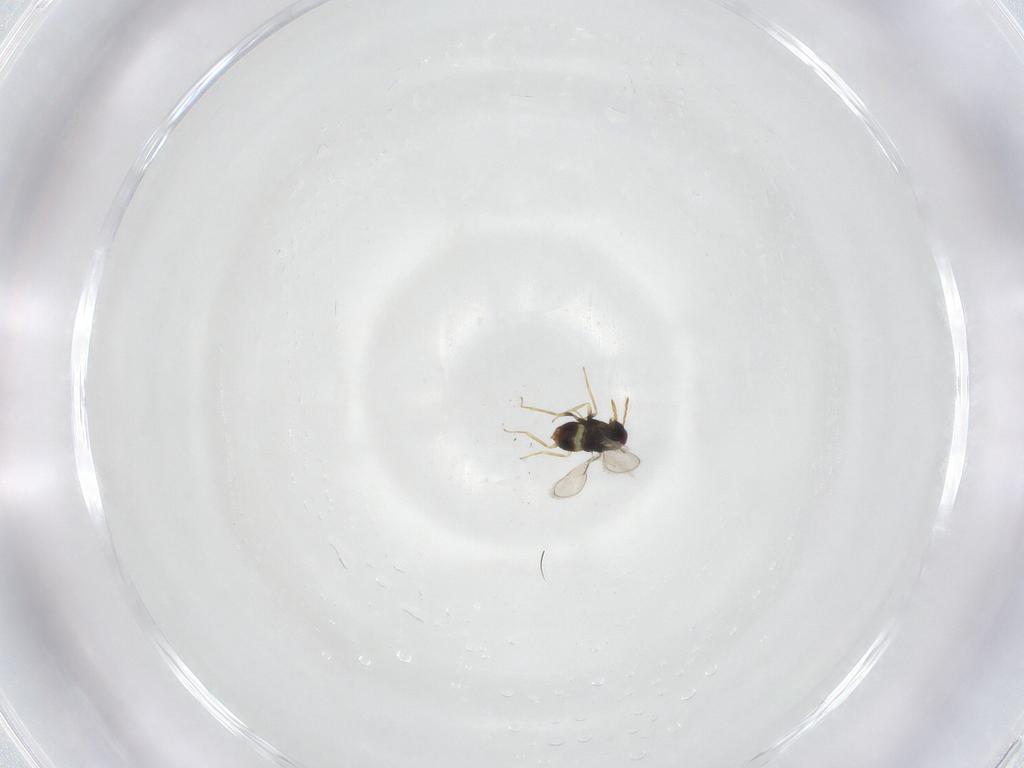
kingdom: Animalia
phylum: Arthropoda
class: Insecta
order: Hymenoptera
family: Aphelinidae
